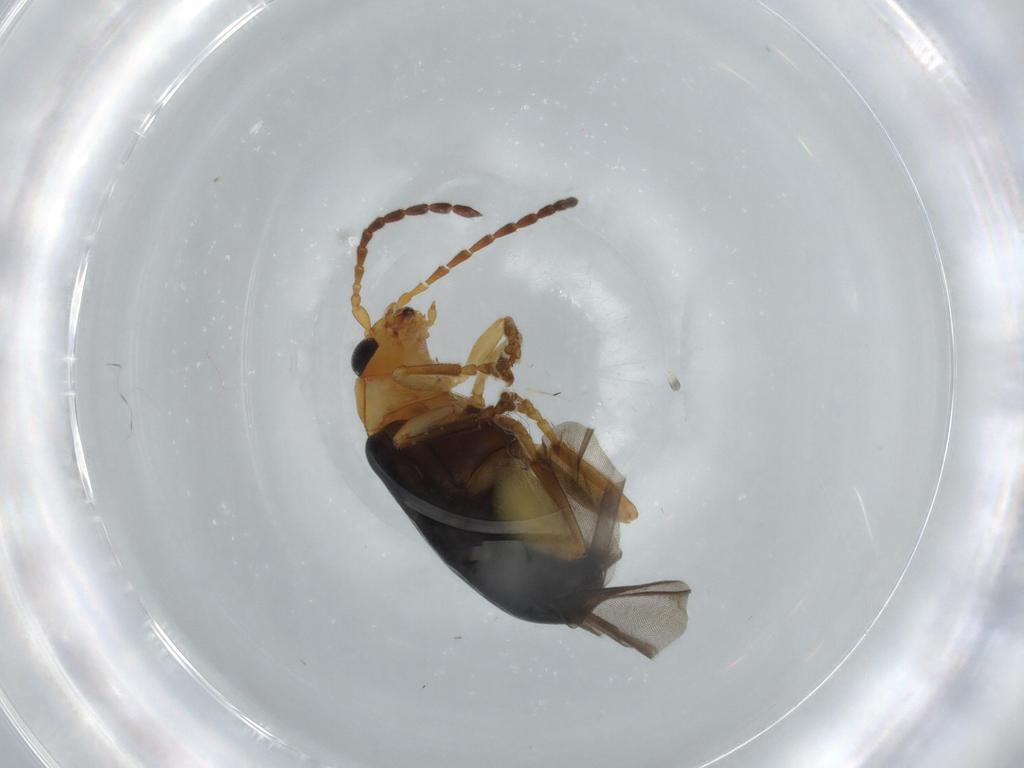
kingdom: Animalia
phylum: Arthropoda
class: Insecta
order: Coleoptera
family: Chrysomelidae
